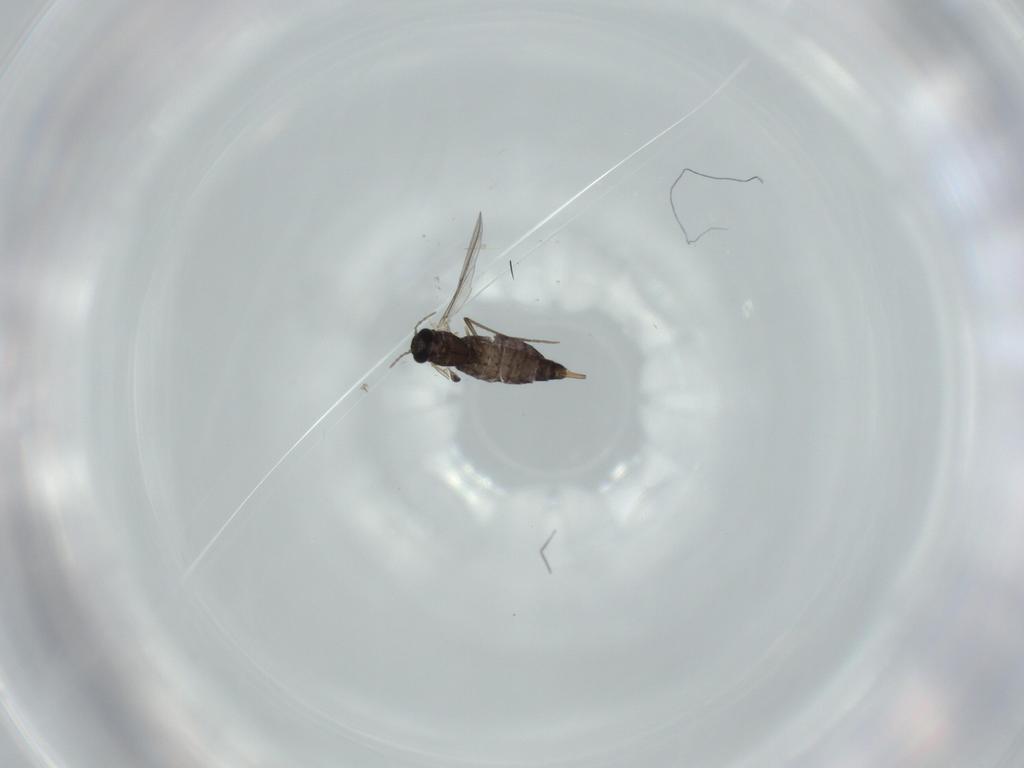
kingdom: Animalia
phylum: Arthropoda
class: Insecta
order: Diptera
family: Chironomidae
